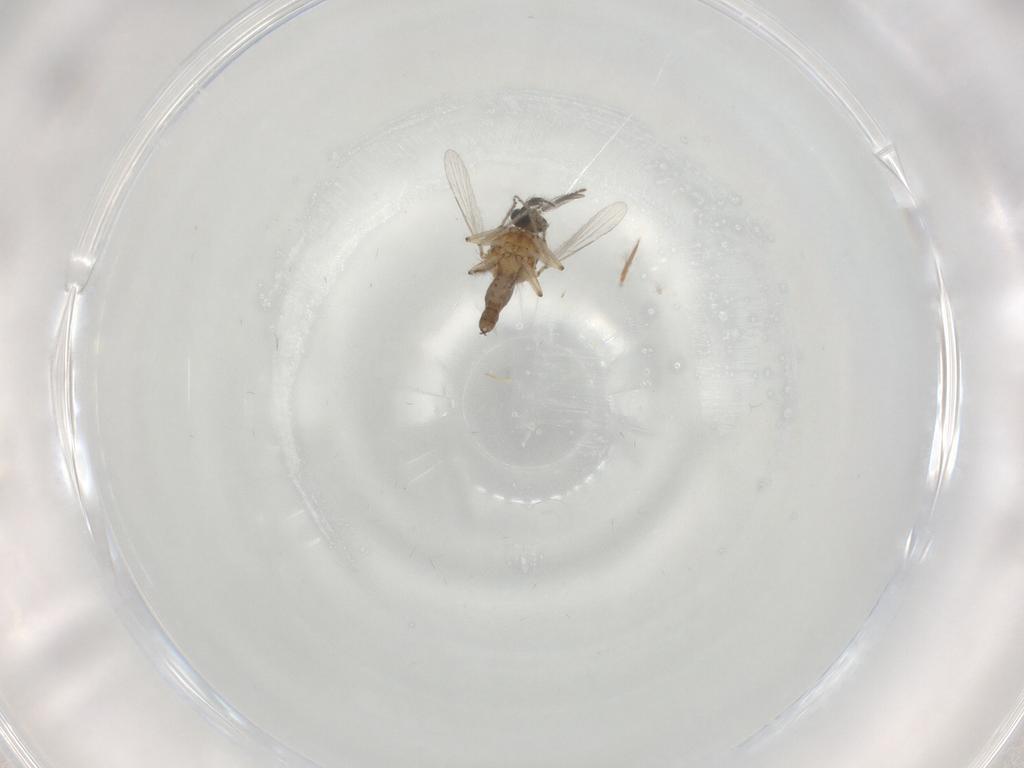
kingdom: Animalia
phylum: Arthropoda
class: Insecta
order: Diptera
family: Ceratopogonidae
